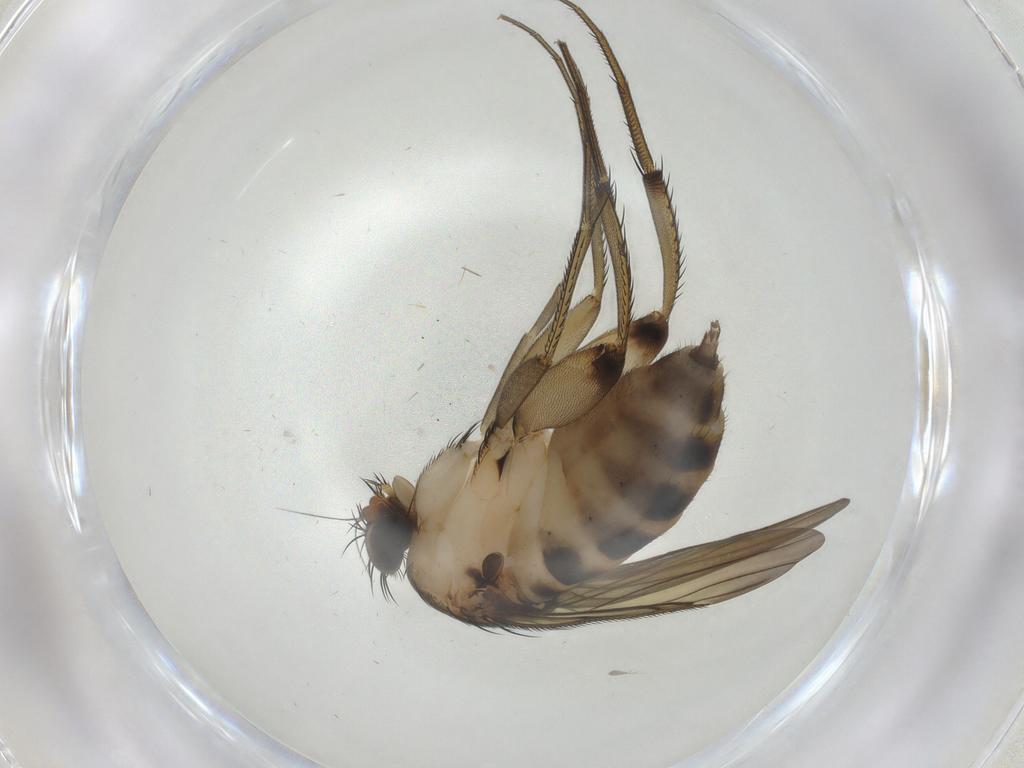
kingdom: Animalia
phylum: Arthropoda
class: Insecta
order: Diptera
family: Phoridae
